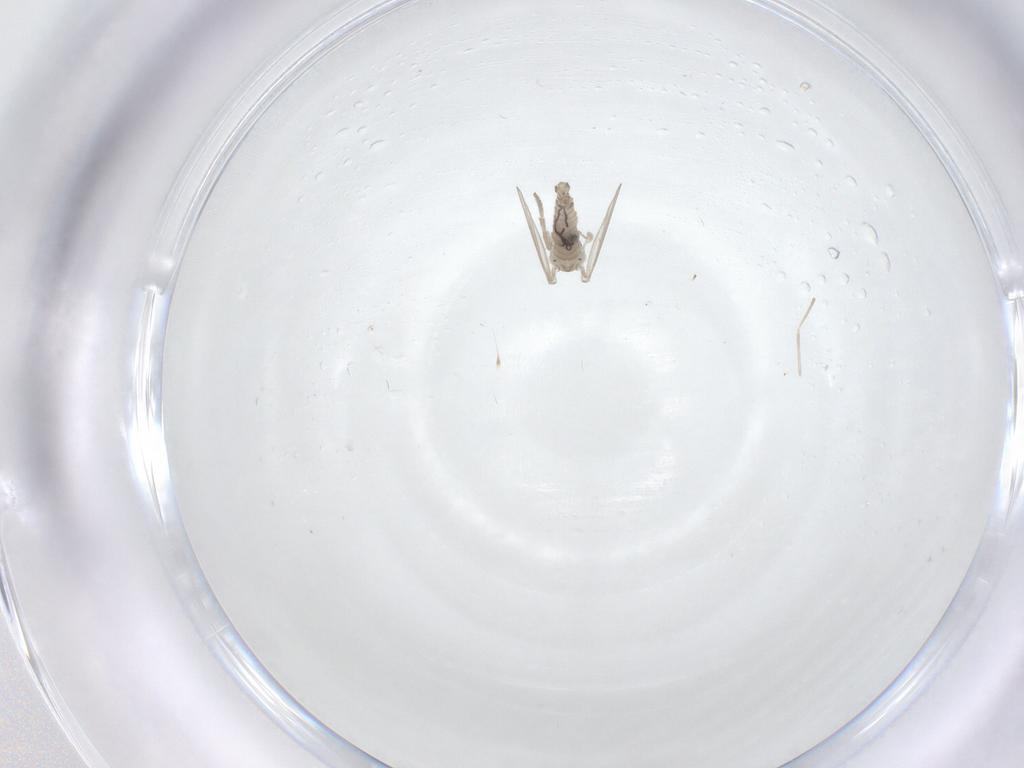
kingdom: Animalia
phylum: Arthropoda
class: Insecta
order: Diptera
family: Psychodidae
